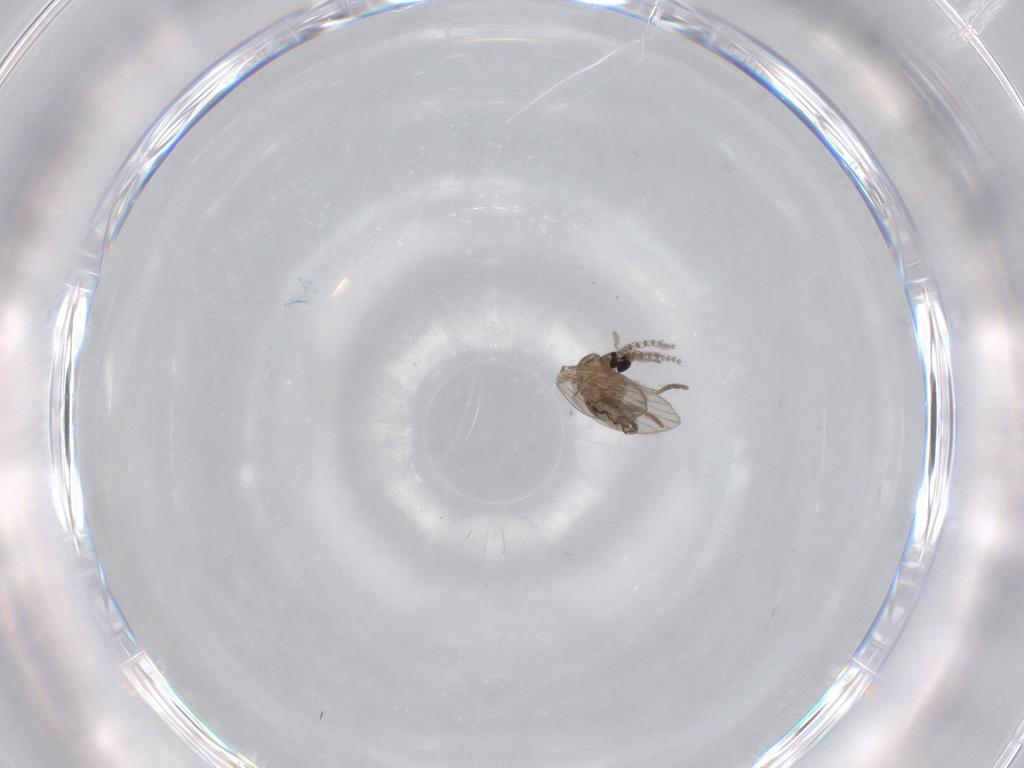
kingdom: Animalia
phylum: Arthropoda
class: Insecta
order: Diptera
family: Psychodidae
